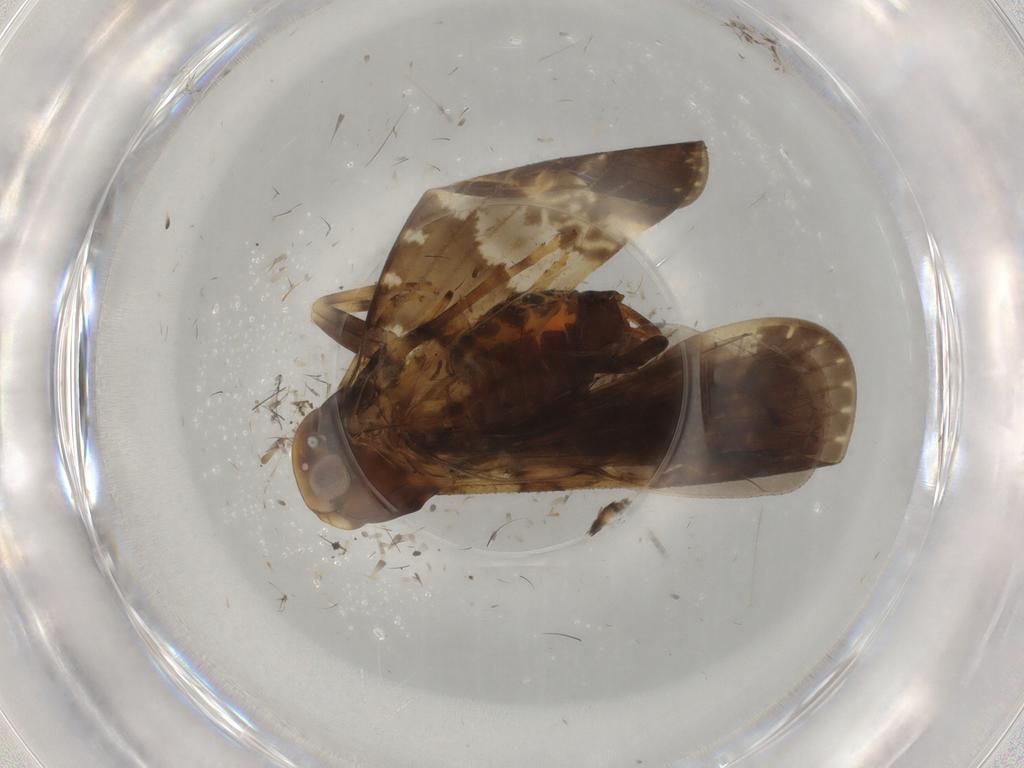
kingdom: Animalia
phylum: Arthropoda
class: Insecta
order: Hemiptera
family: Cixiidae
